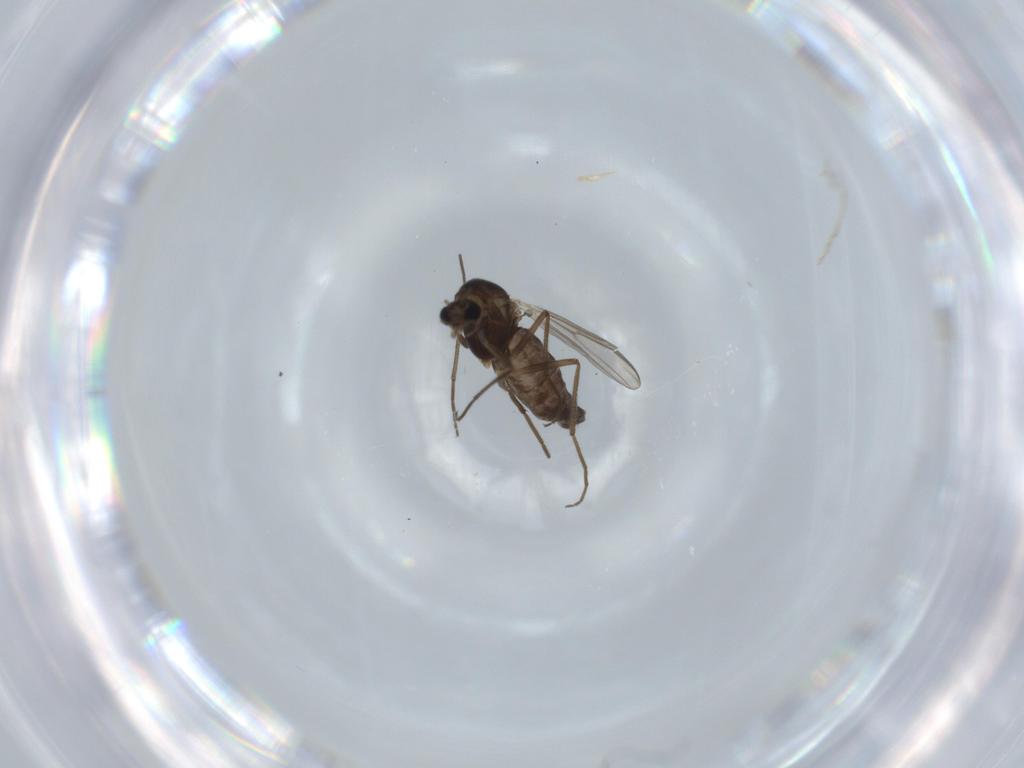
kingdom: Animalia
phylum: Arthropoda
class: Insecta
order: Diptera
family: Chironomidae
